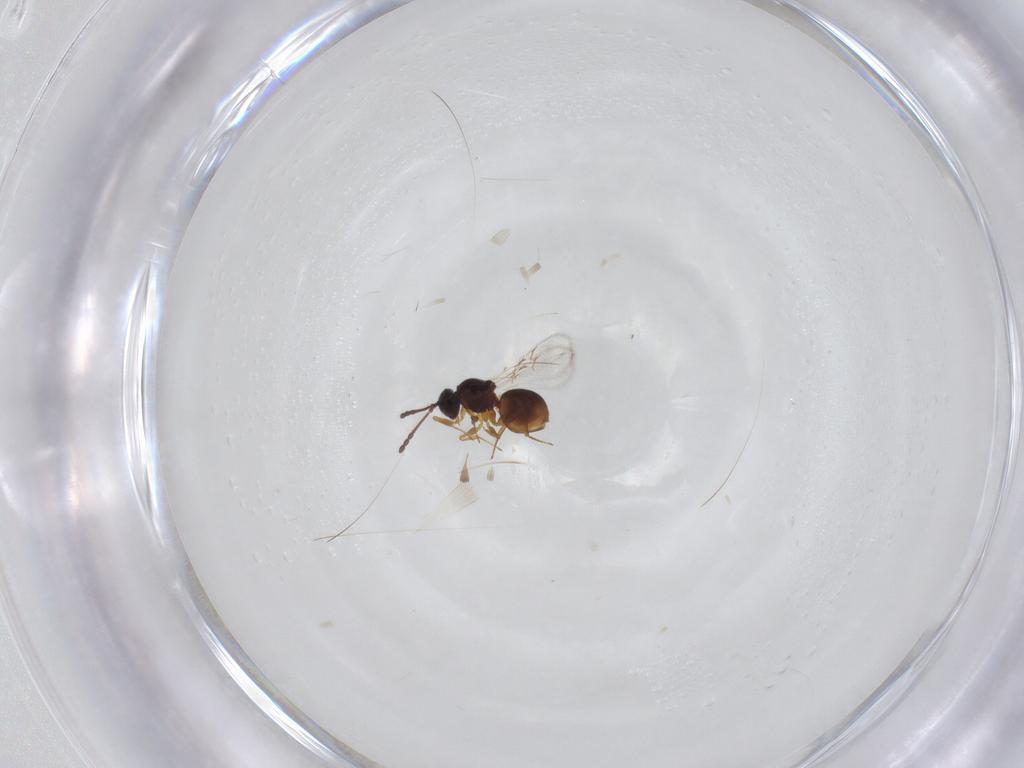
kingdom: Animalia
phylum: Arthropoda
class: Insecta
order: Hymenoptera
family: Figitidae
